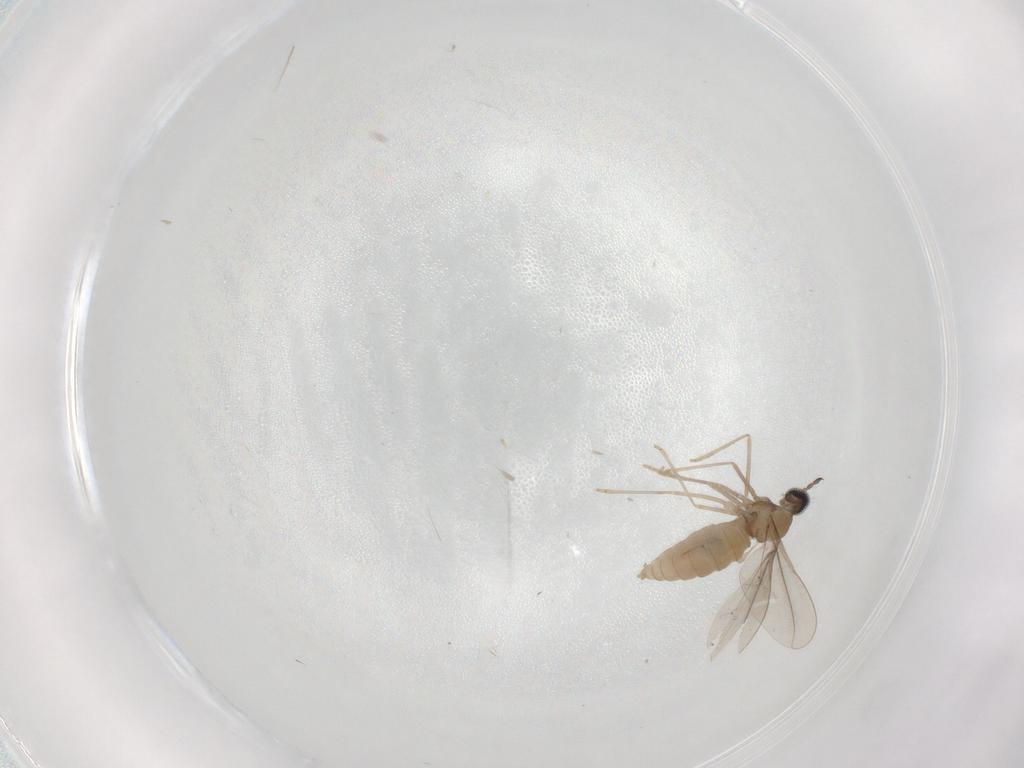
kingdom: Animalia
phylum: Arthropoda
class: Insecta
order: Diptera
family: Cecidomyiidae
